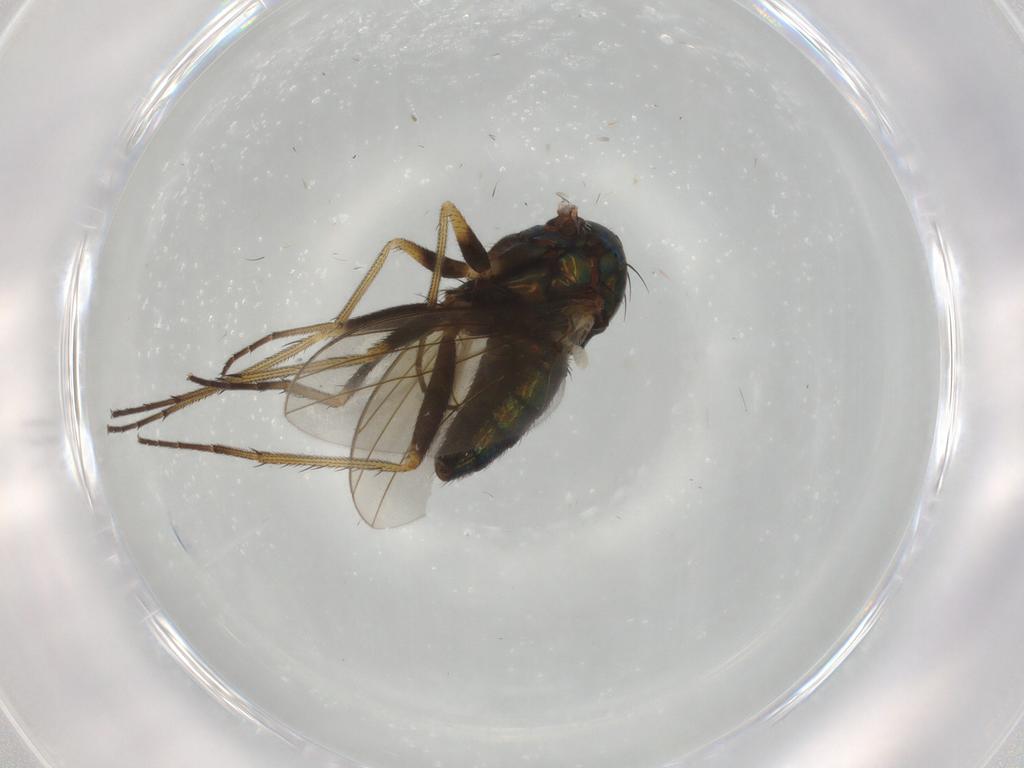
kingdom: Animalia
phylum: Arthropoda
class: Insecta
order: Diptera
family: Dolichopodidae
